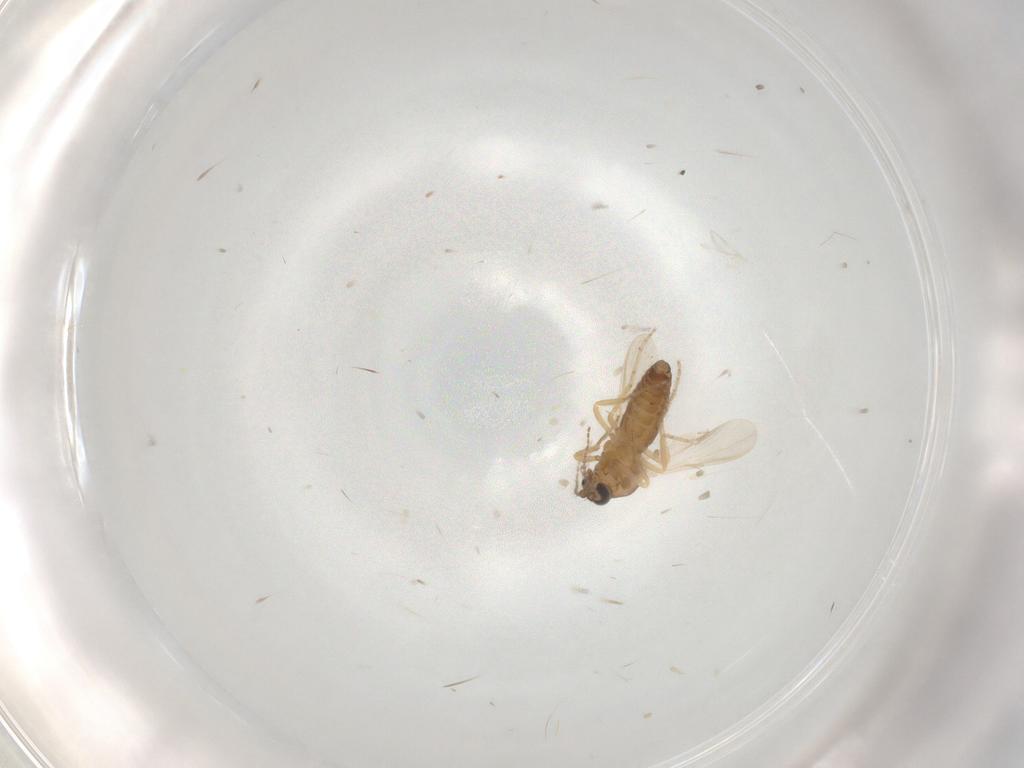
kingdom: Animalia
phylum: Arthropoda
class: Insecta
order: Diptera
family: Ceratopogonidae
